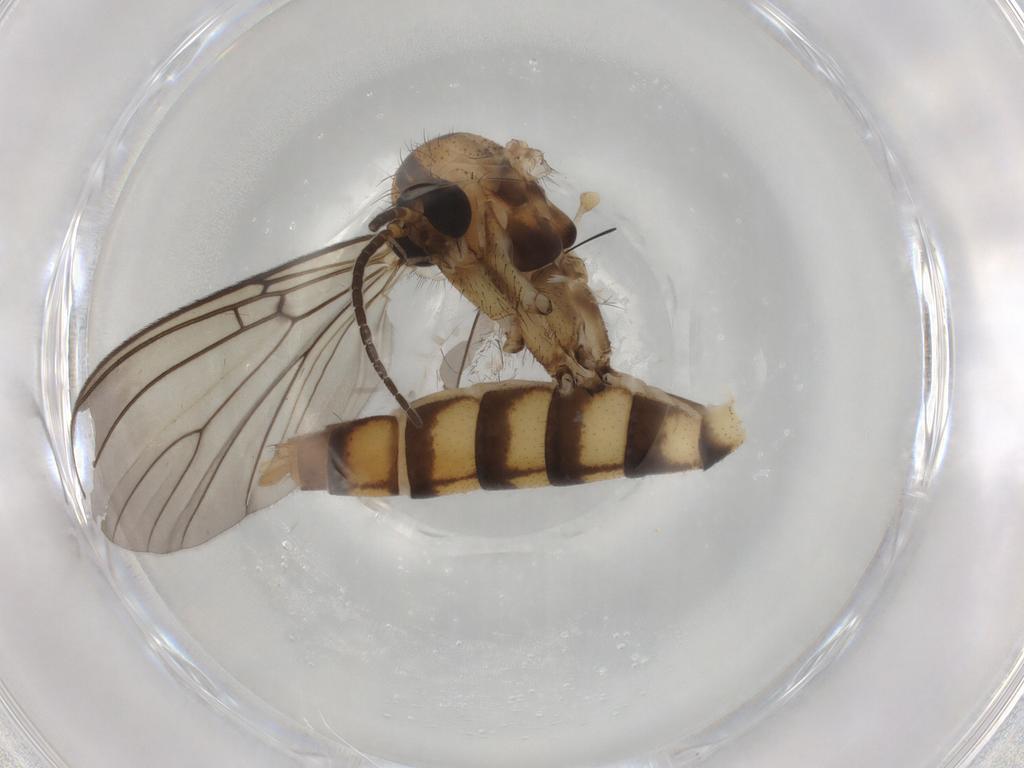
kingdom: Animalia
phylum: Arthropoda
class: Insecta
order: Diptera
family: Mycetophilidae
